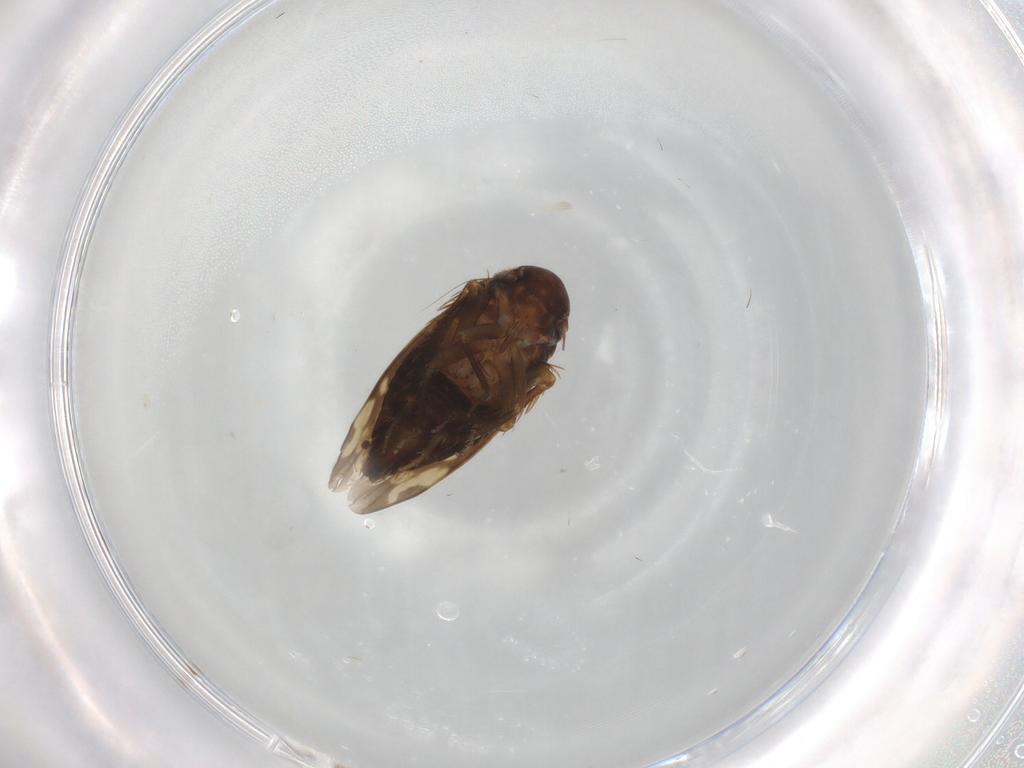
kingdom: Animalia
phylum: Arthropoda
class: Insecta
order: Hemiptera
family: Cicadellidae
